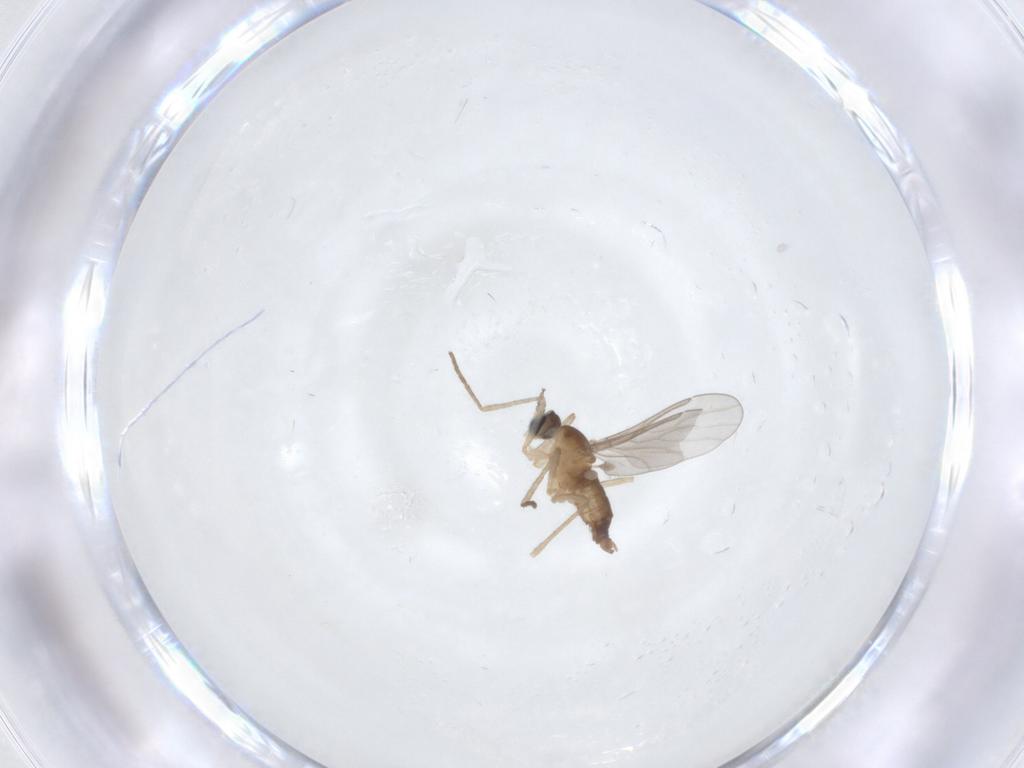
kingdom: Animalia
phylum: Arthropoda
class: Insecta
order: Diptera
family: Cecidomyiidae
